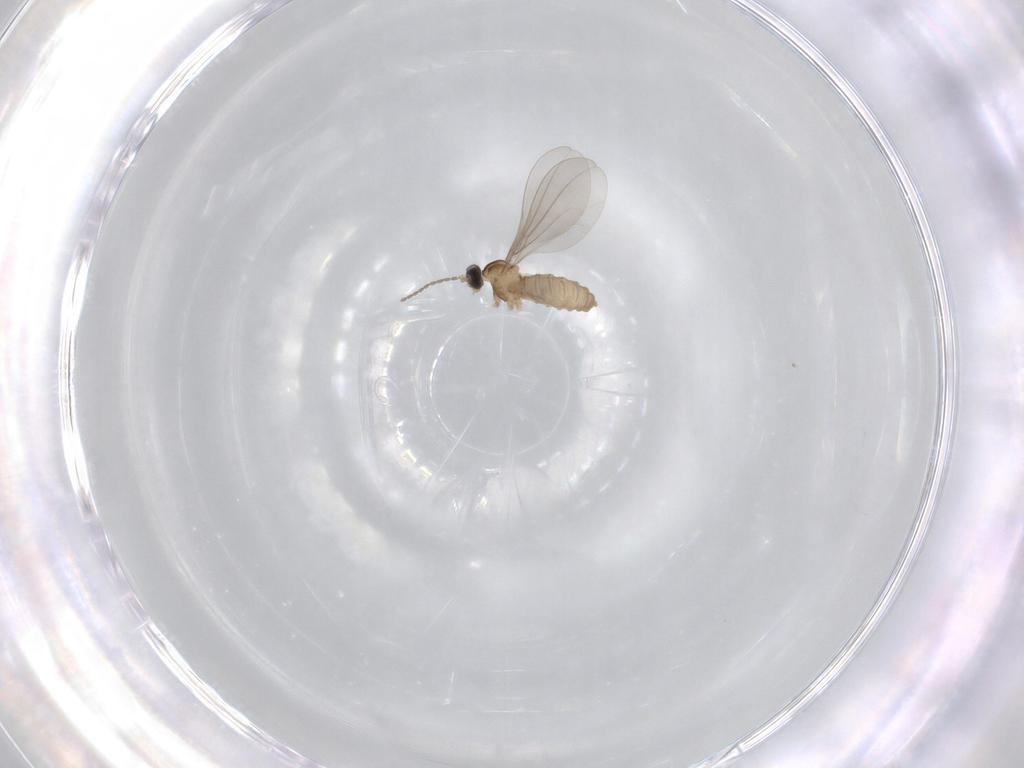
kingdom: Animalia
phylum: Arthropoda
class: Insecta
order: Diptera
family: Cecidomyiidae
